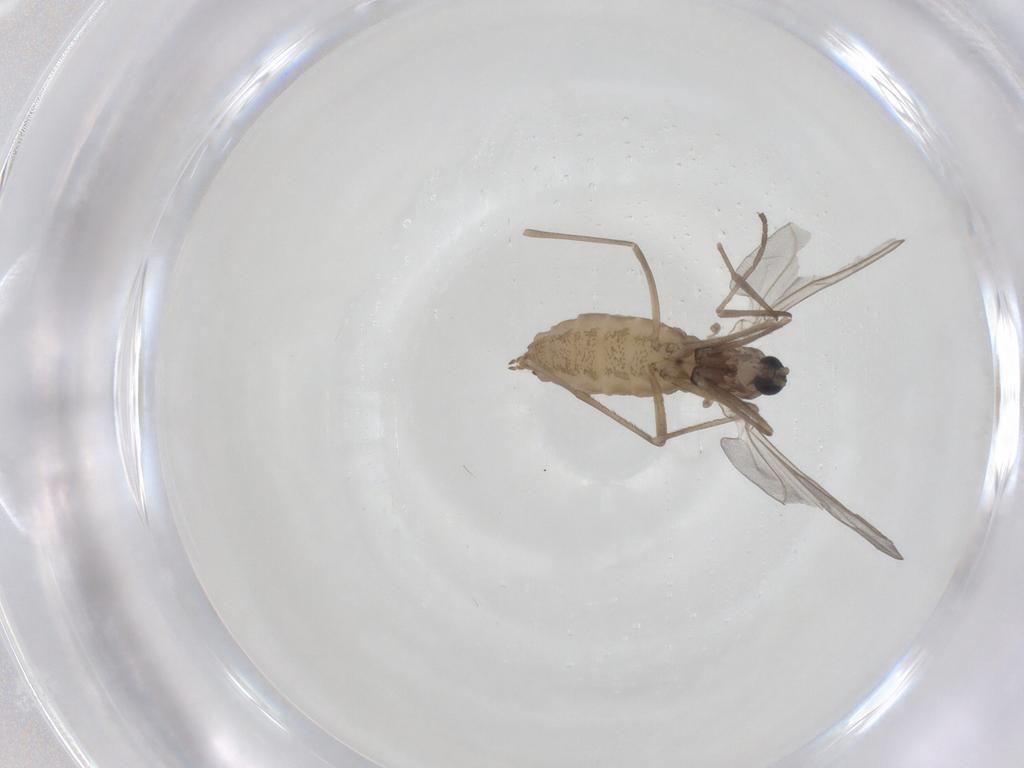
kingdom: Animalia
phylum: Arthropoda
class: Insecta
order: Diptera
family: Cecidomyiidae
